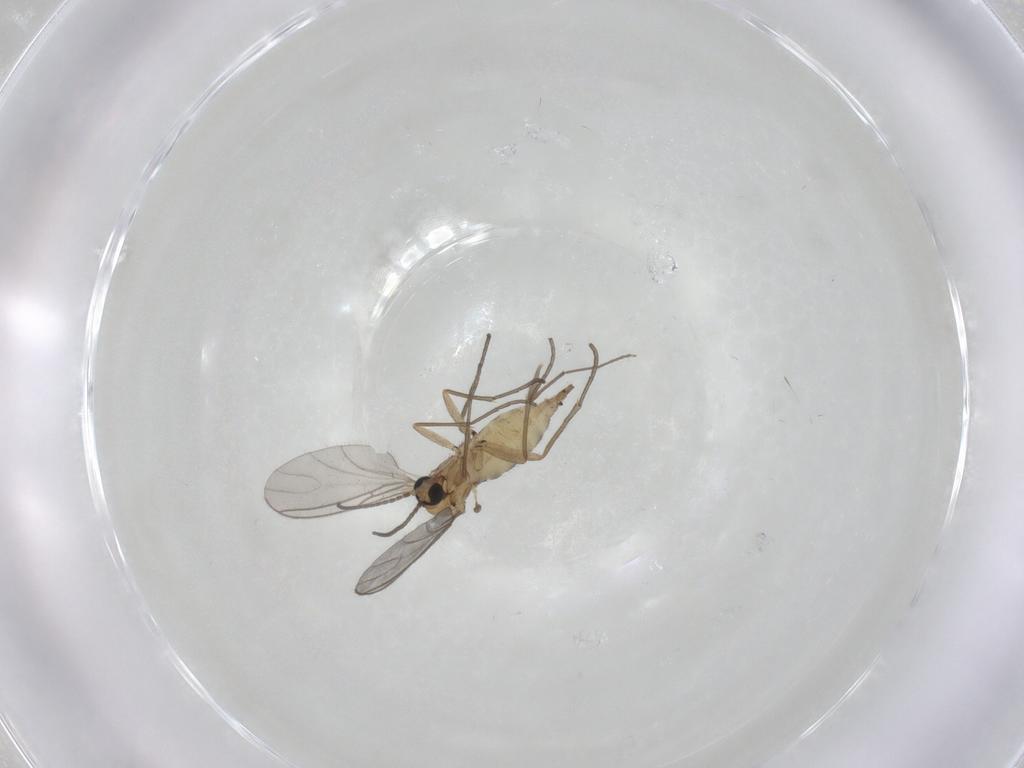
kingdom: Animalia
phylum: Arthropoda
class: Insecta
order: Diptera
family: Sciaridae
